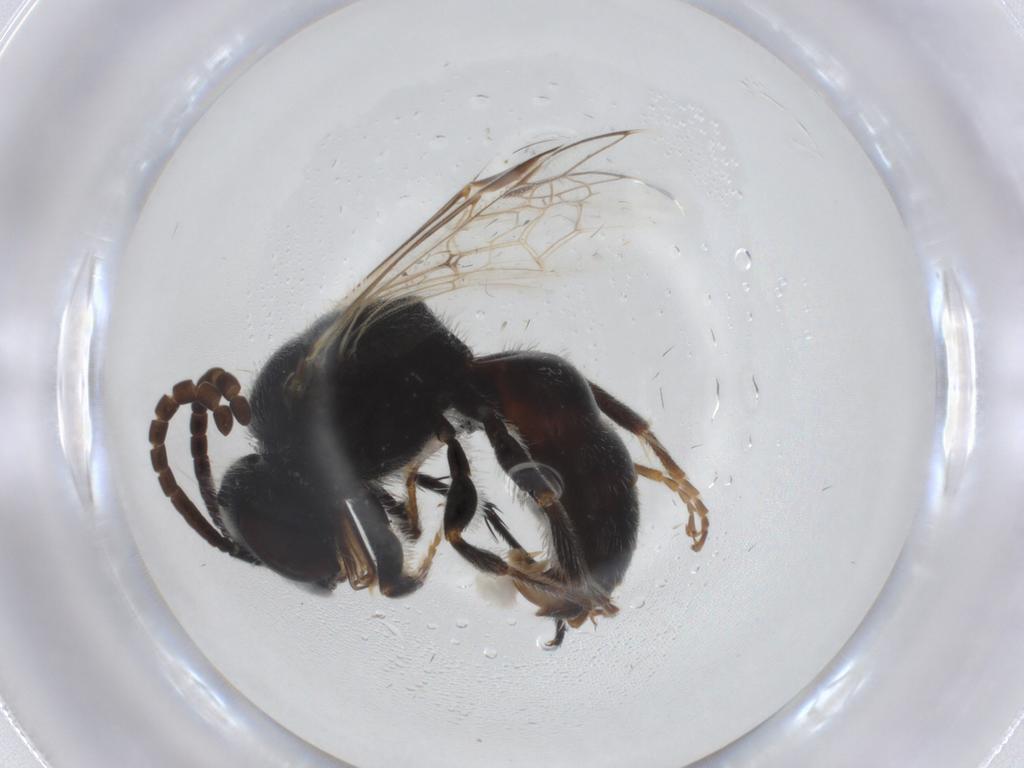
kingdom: Animalia
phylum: Arthropoda
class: Insecta
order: Hymenoptera
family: Halictidae
